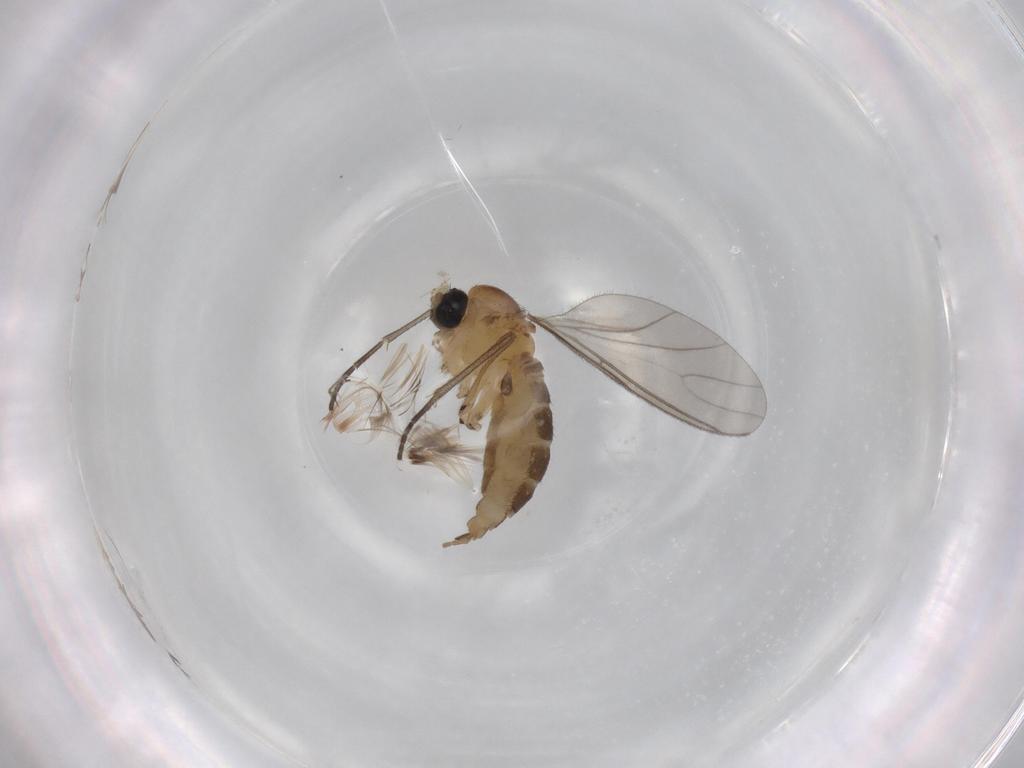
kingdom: Animalia
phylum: Arthropoda
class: Insecta
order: Diptera
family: Sciaridae
